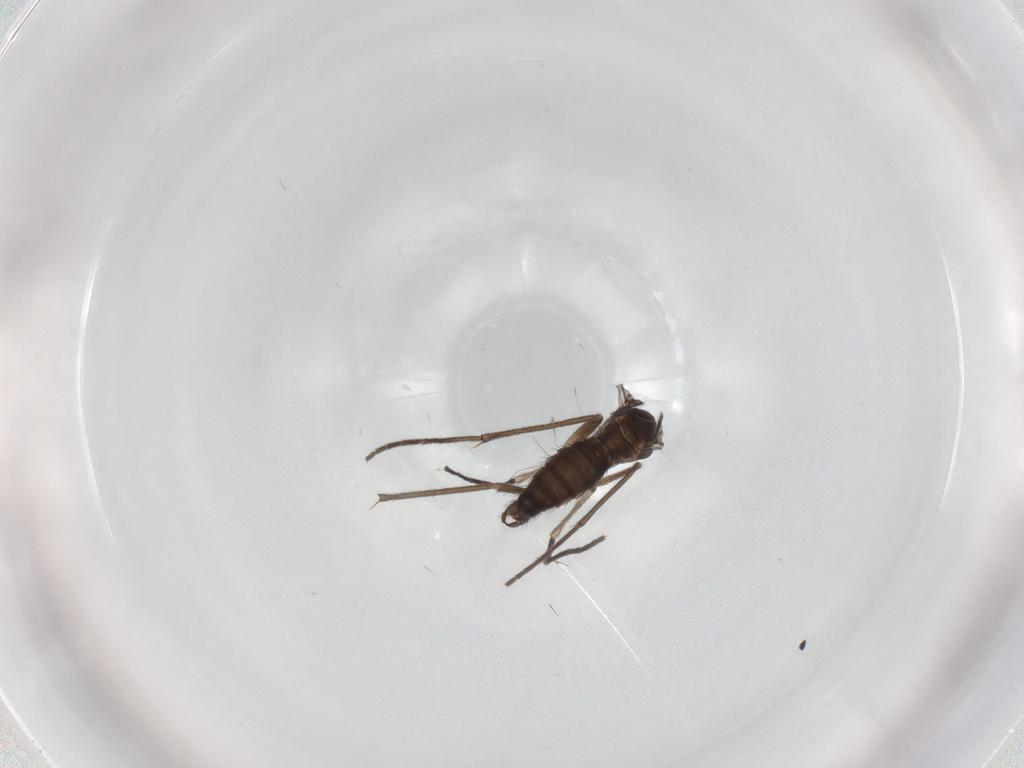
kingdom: Animalia
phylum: Arthropoda
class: Insecta
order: Diptera
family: Sciaridae
